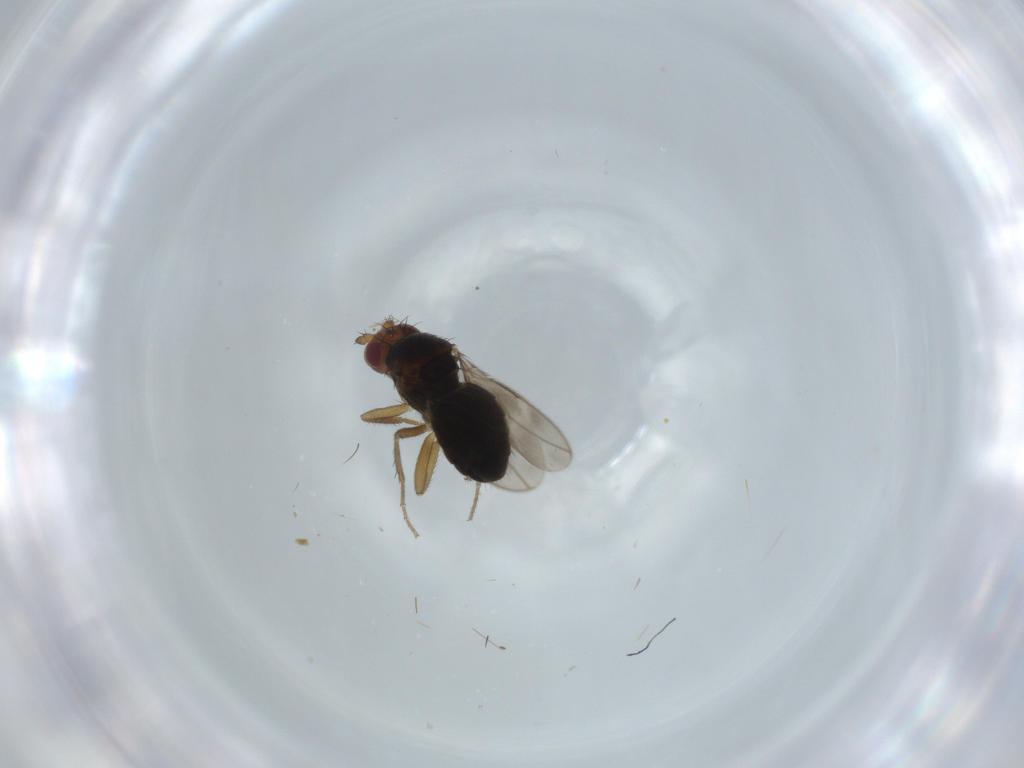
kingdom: Animalia
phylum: Arthropoda
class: Insecta
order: Diptera
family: Sphaeroceridae
